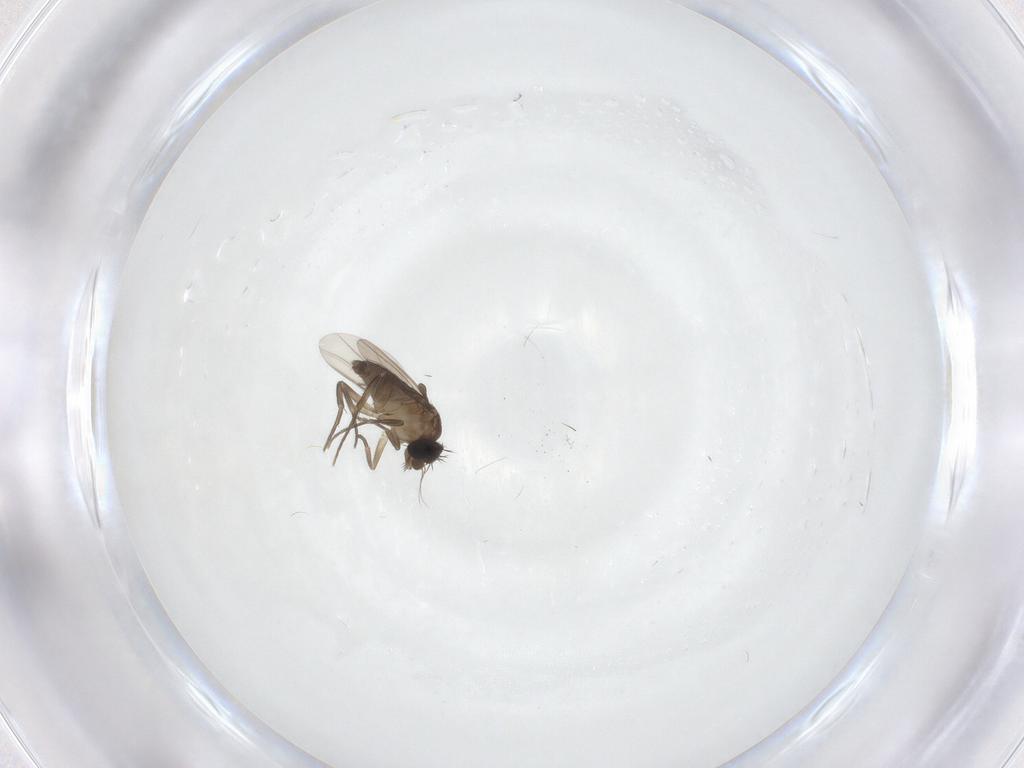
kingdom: Animalia
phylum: Arthropoda
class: Insecta
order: Diptera
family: Phoridae
